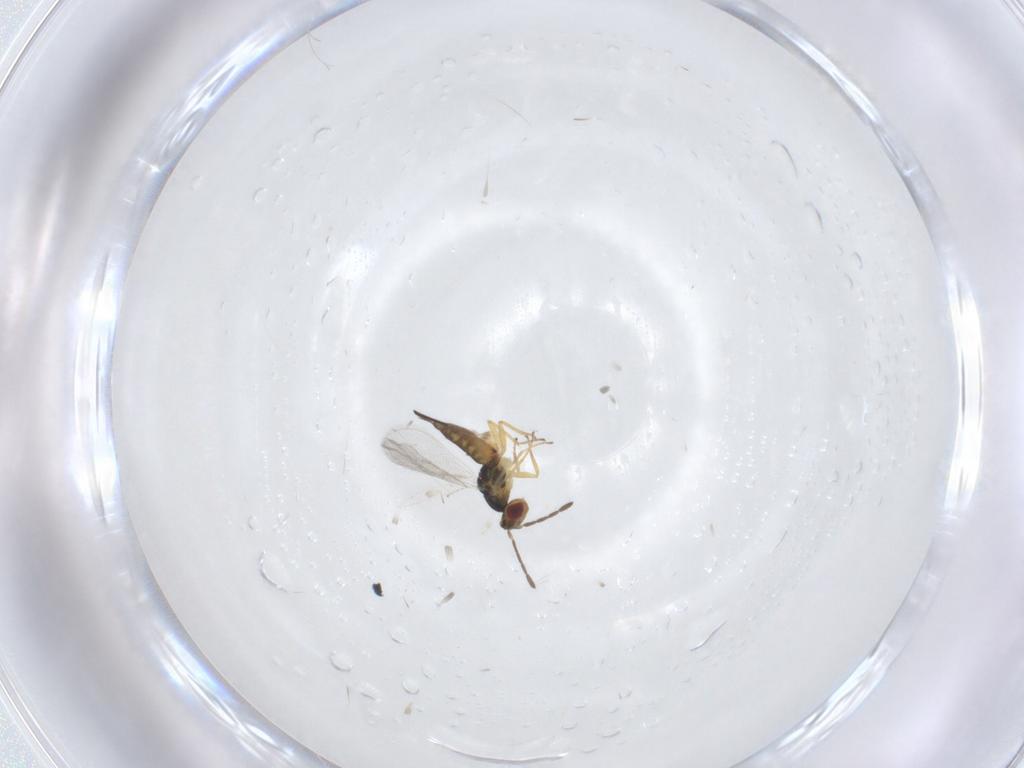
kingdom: Animalia
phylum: Arthropoda
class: Insecta
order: Hymenoptera
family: Eulophidae
